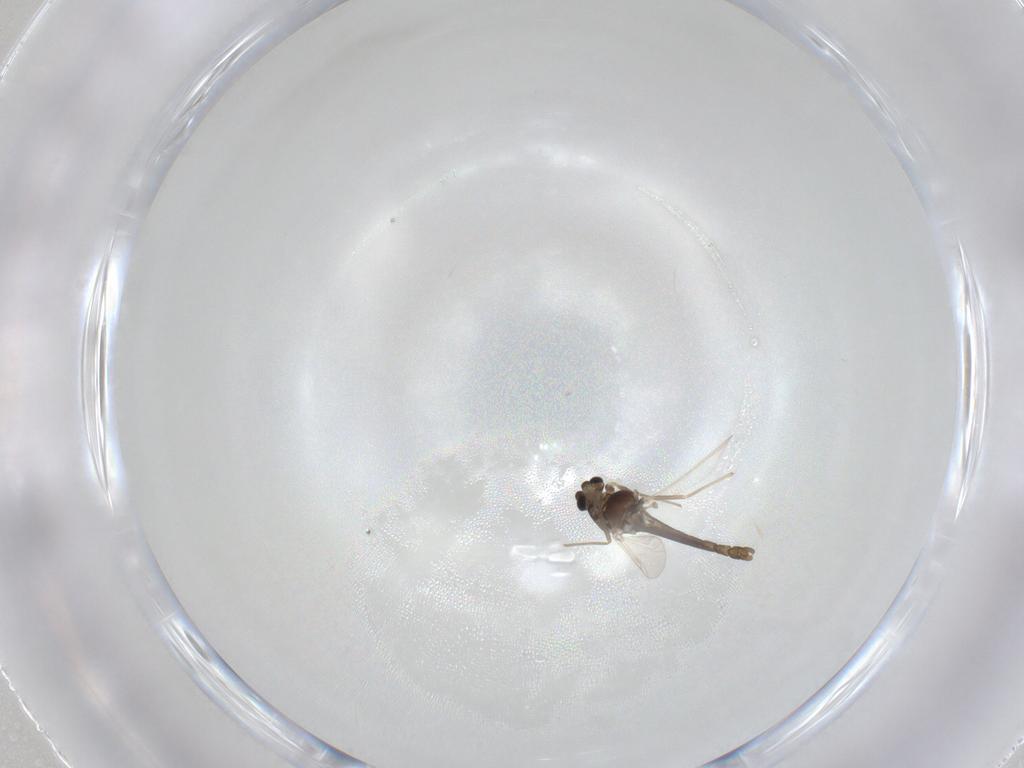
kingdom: Animalia
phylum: Arthropoda
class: Insecta
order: Diptera
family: Chironomidae
